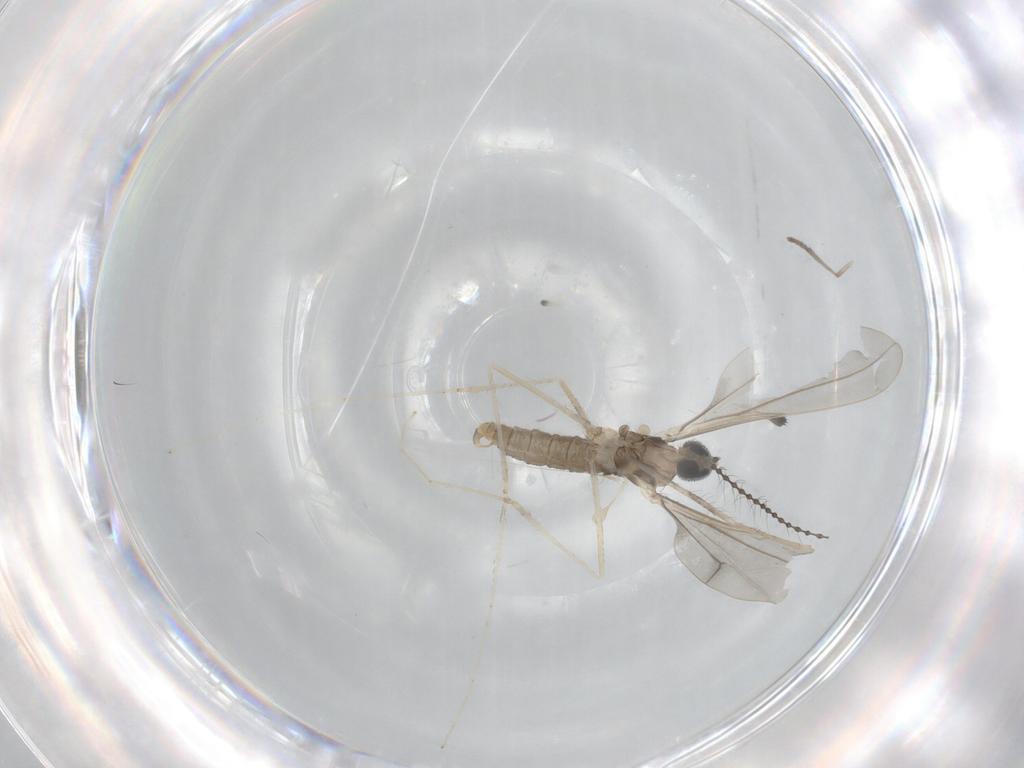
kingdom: Animalia
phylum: Arthropoda
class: Insecta
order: Diptera
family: Psychodidae
